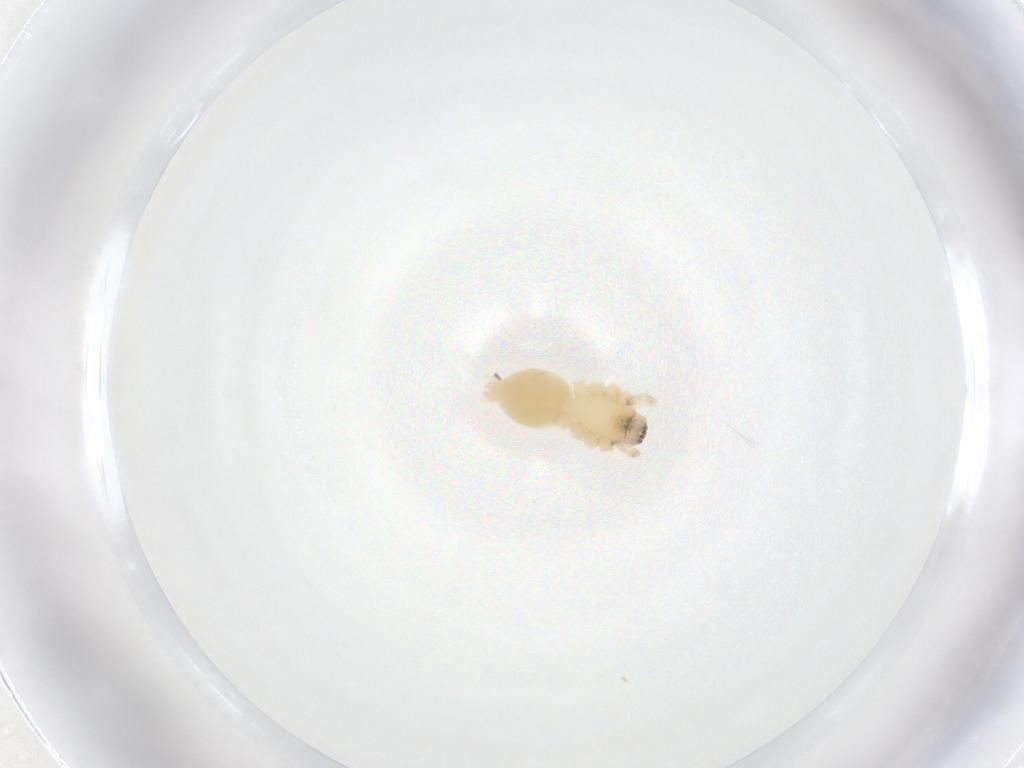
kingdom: Animalia
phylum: Arthropoda
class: Arachnida
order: Araneae
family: Anyphaenidae
